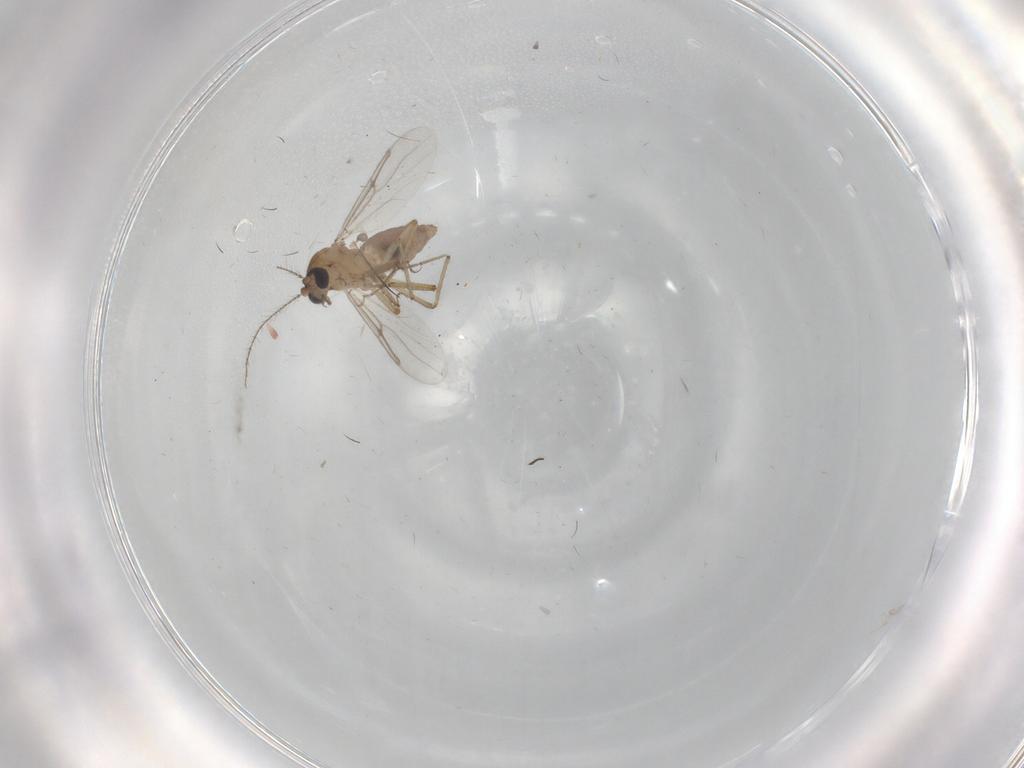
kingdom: Animalia
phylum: Arthropoda
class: Insecta
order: Diptera
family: Ceratopogonidae
